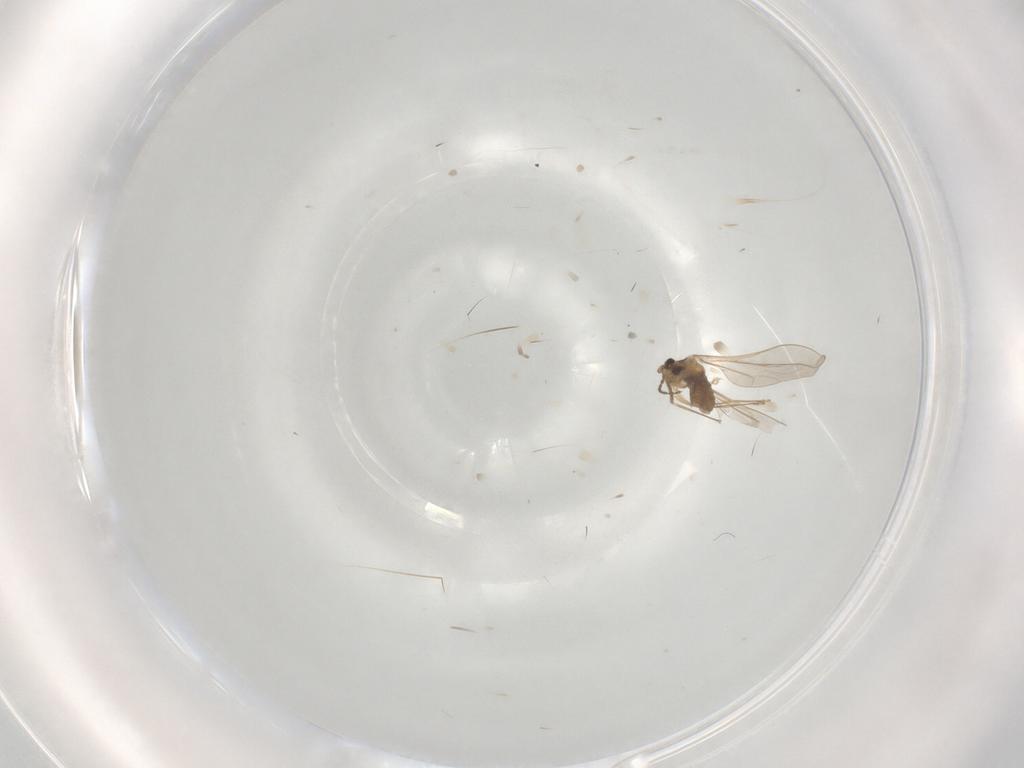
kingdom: Animalia
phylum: Arthropoda
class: Insecta
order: Diptera
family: Cecidomyiidae
